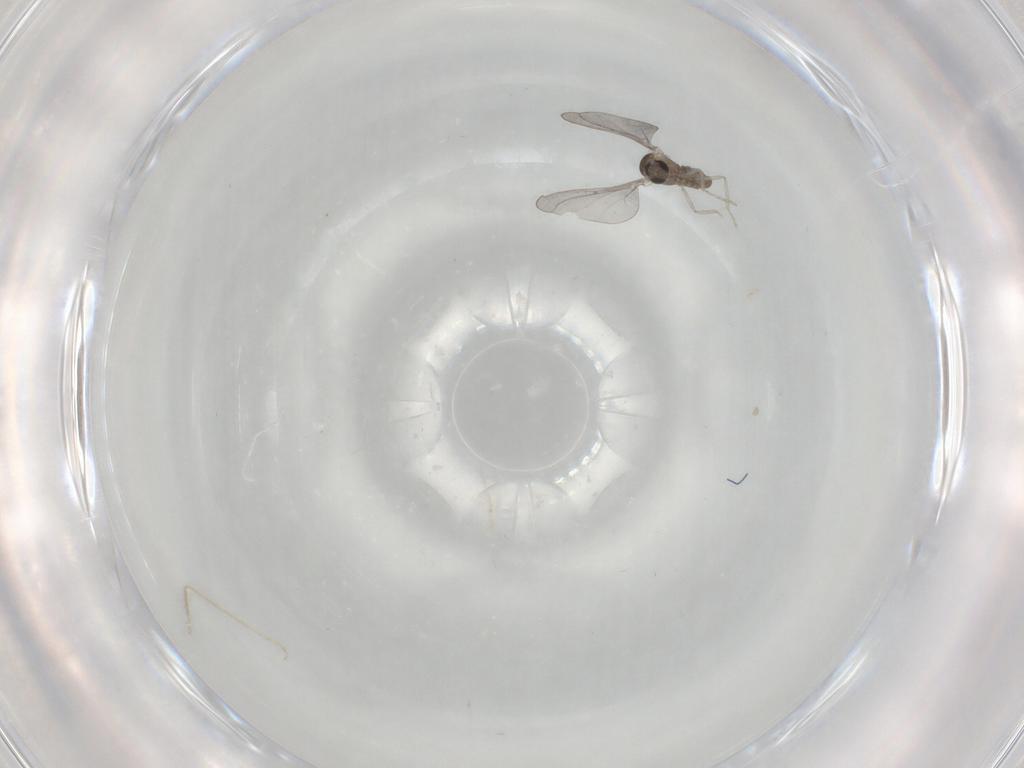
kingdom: Animalia
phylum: Arthropoda
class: Insecta
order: Diptera
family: Cecidomyiidae
